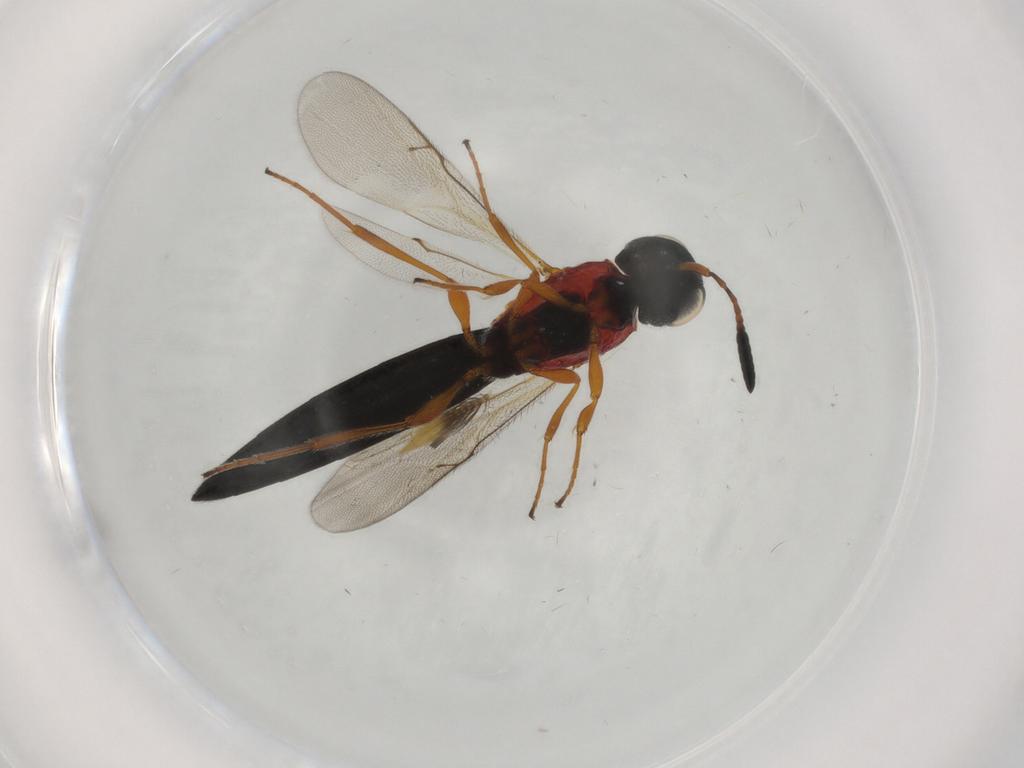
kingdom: Animalia
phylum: Arthropoda
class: Insecta
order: Hymenoptera
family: Scelionidae
